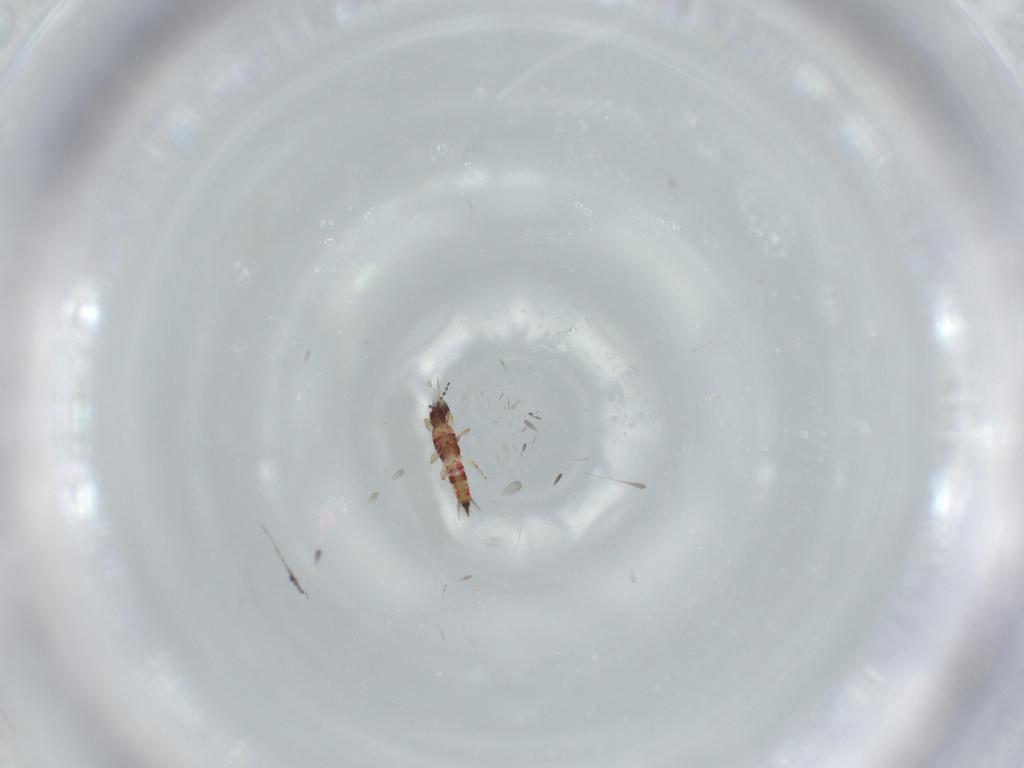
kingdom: Animalia
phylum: Arthropoda
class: Insecta
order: Thysanoptera
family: Phlaeothripidae
